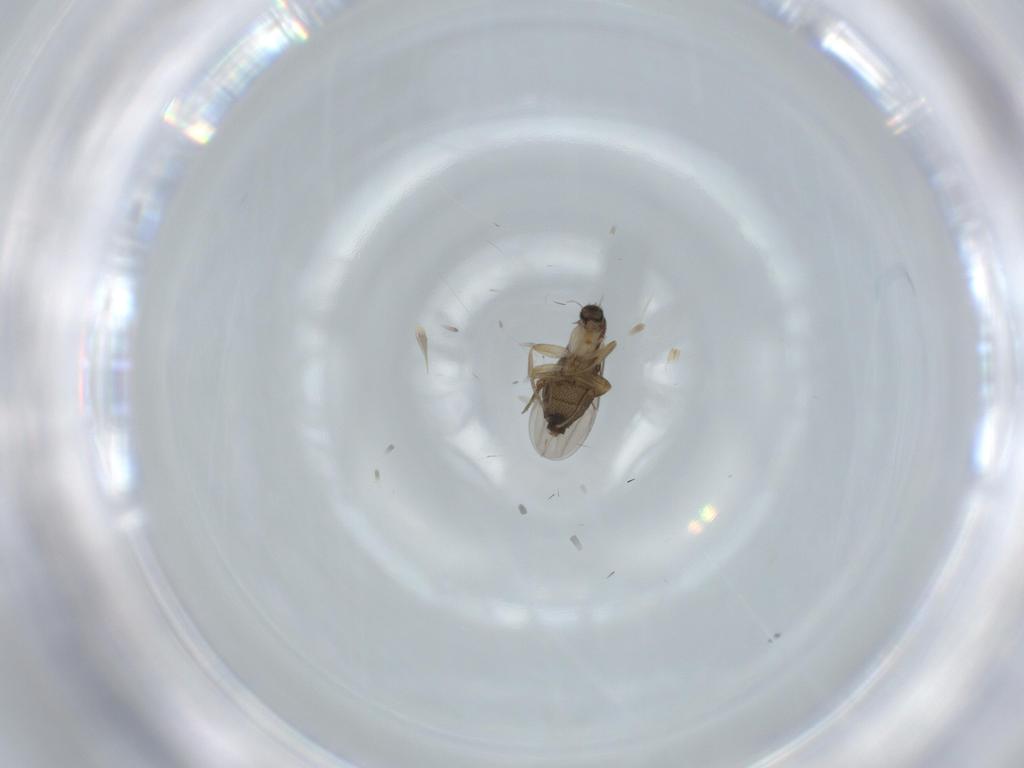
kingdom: Animalia
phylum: Arthropoda
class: Insecta
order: Diptera
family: Phoridae
